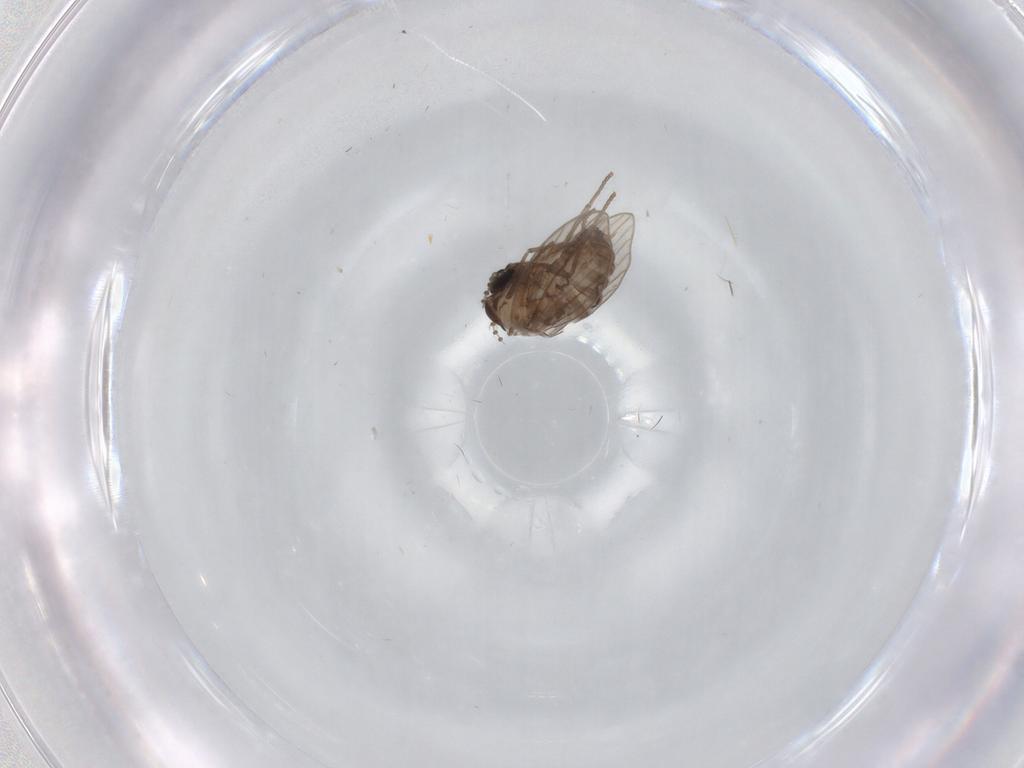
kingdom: Animalia
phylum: Arthropoda
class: Insecta
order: Diptera
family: Psychodidae
